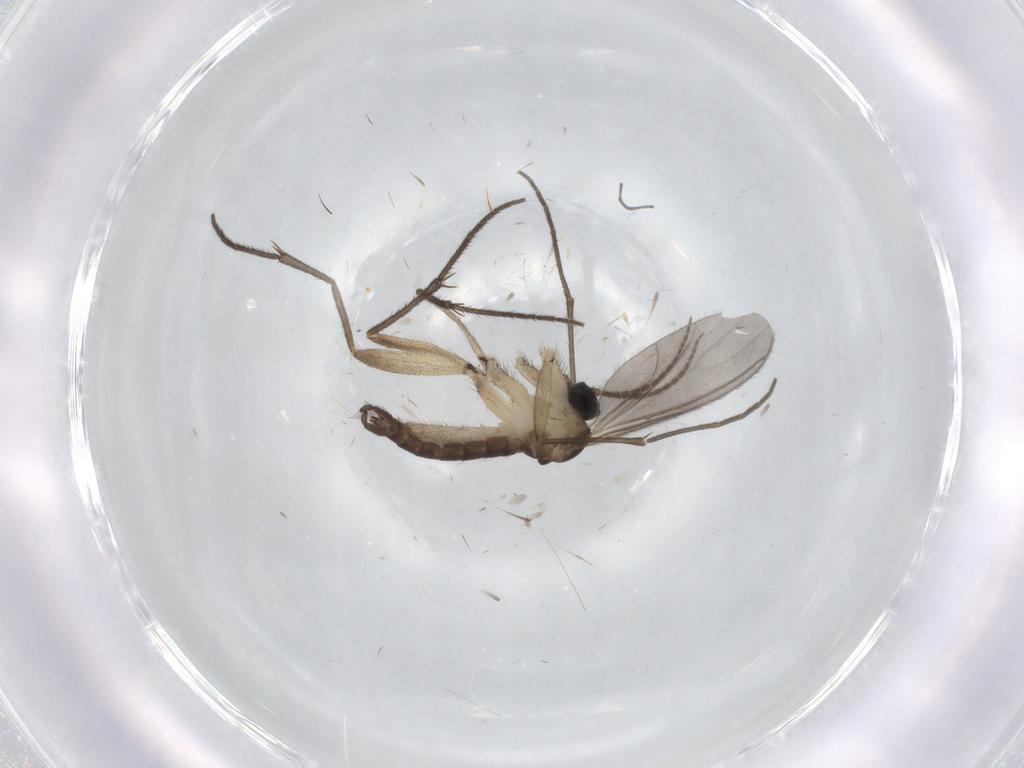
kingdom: Animalia
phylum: Arthropoda
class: Insecta
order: Diptera
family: Sciaridae
